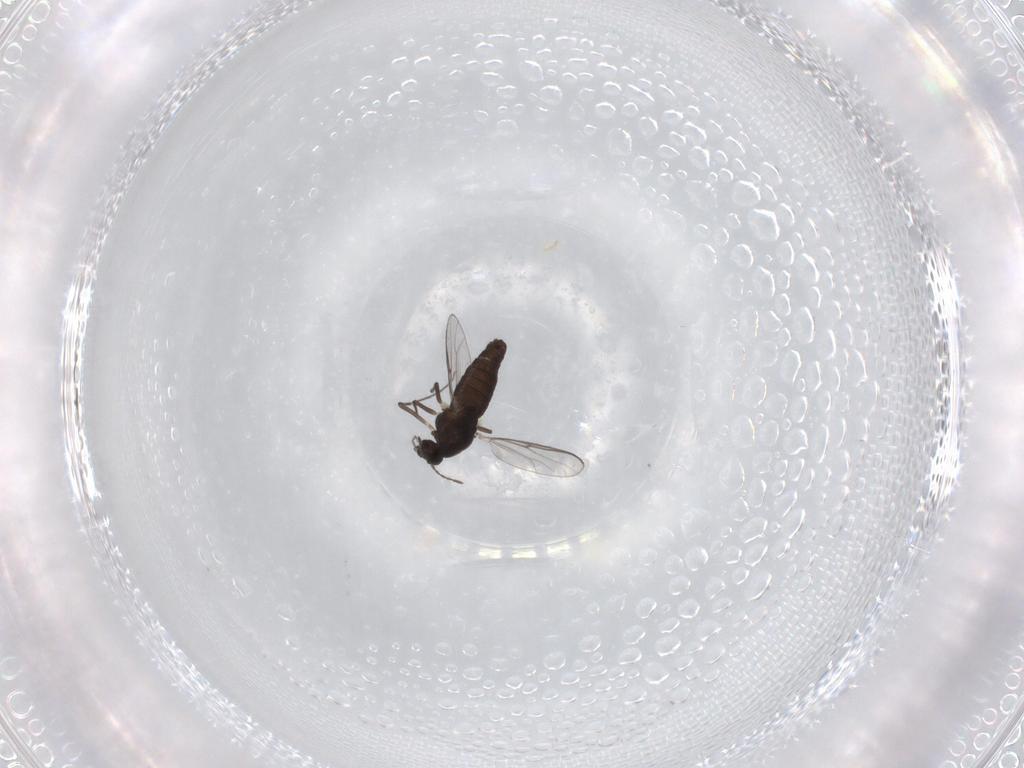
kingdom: Animalia
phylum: Arthropoda
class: Insecta
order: Diptera
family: Chironomidae
